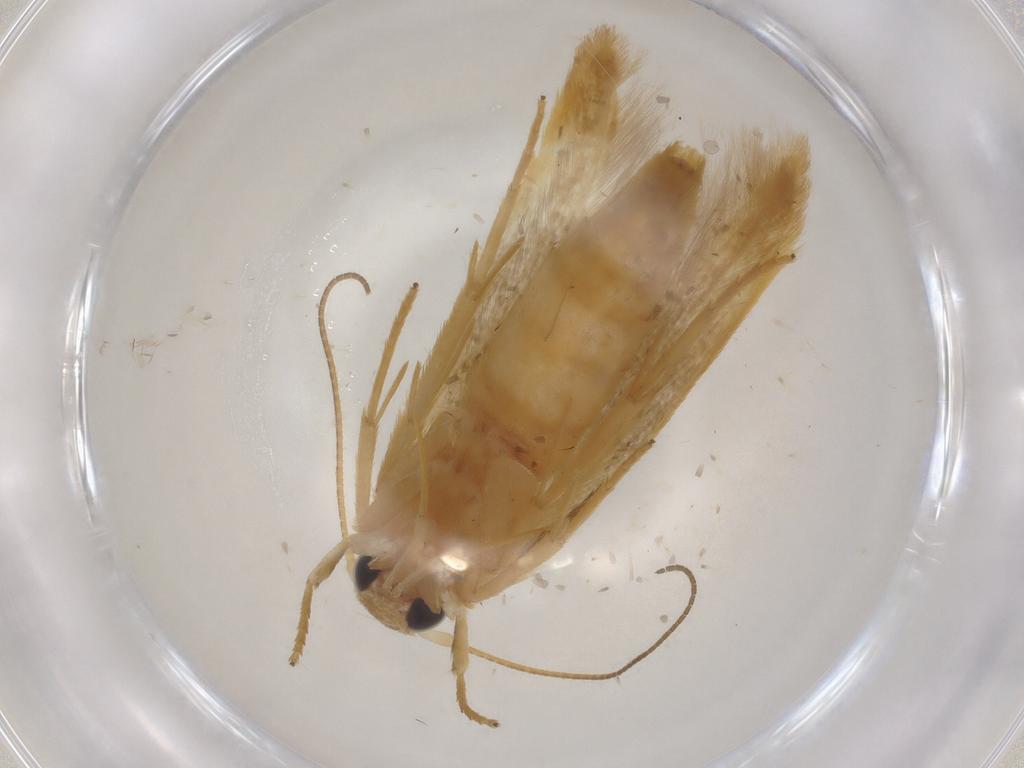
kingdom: Animalia
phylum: Arthropoda
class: Insecta
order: Lepidoptera
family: Stathmopodidae
